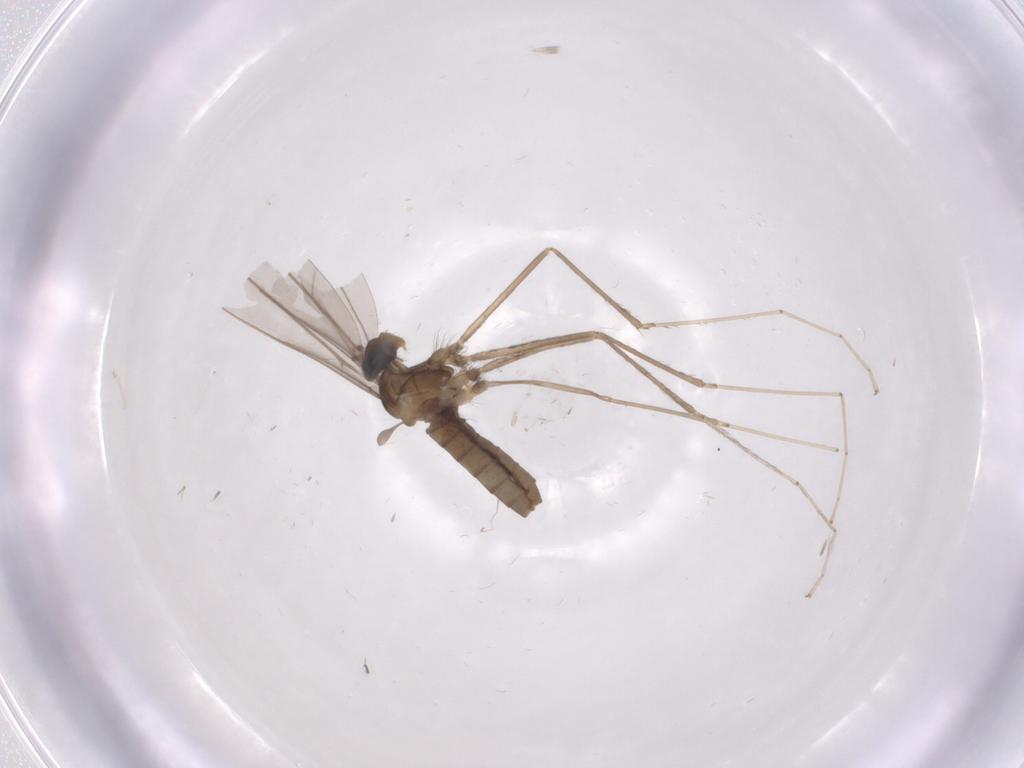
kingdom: Animalia
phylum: Arthropoda
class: Insecta
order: Diptera
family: Cecidomyiidae
